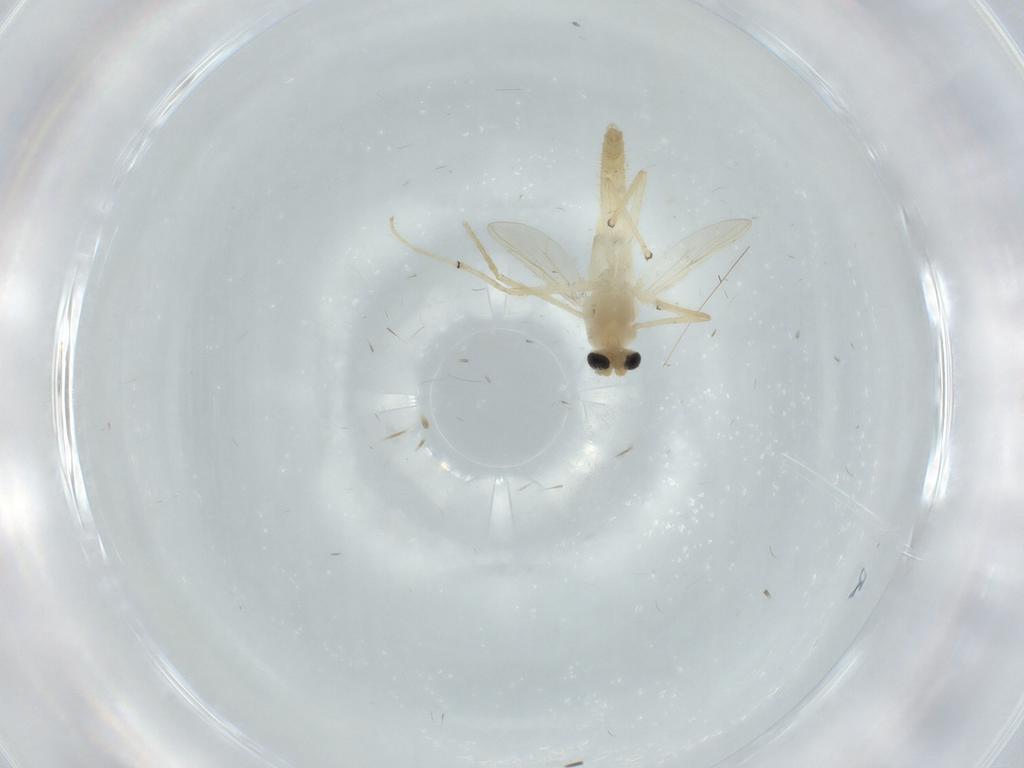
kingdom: Animalia
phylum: Arthropoda
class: Insecta
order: Diptera
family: Chironomidae
